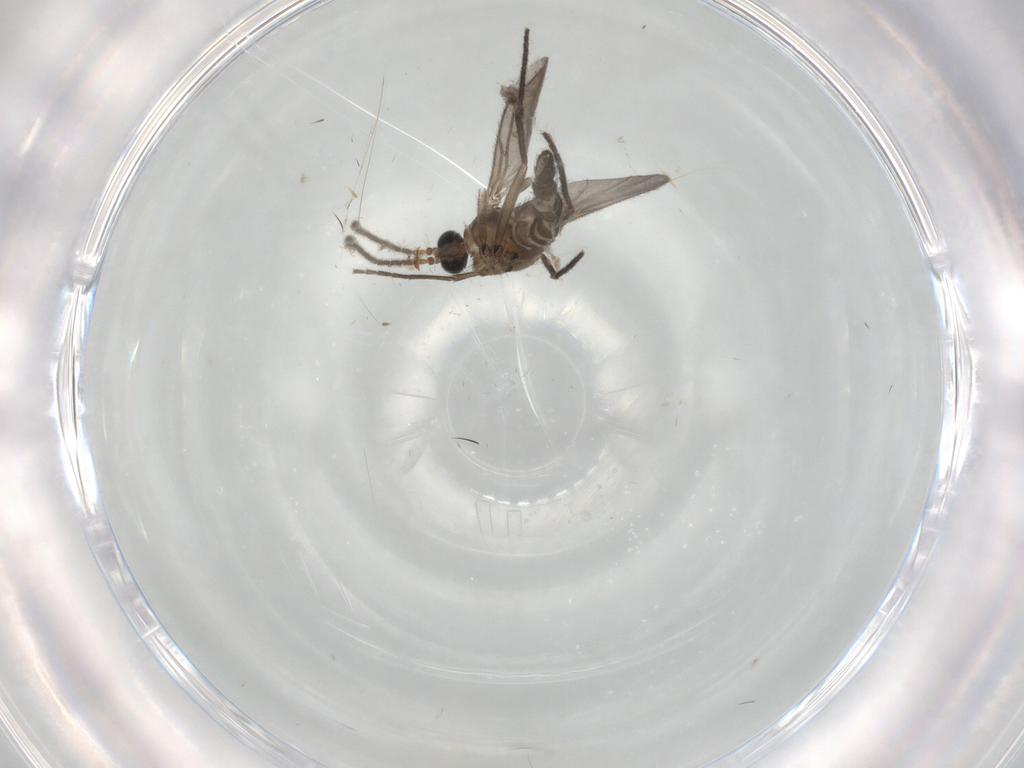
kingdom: Animalia
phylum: Arthropoda
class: Insecta
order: Diptera
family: Sciaridae
